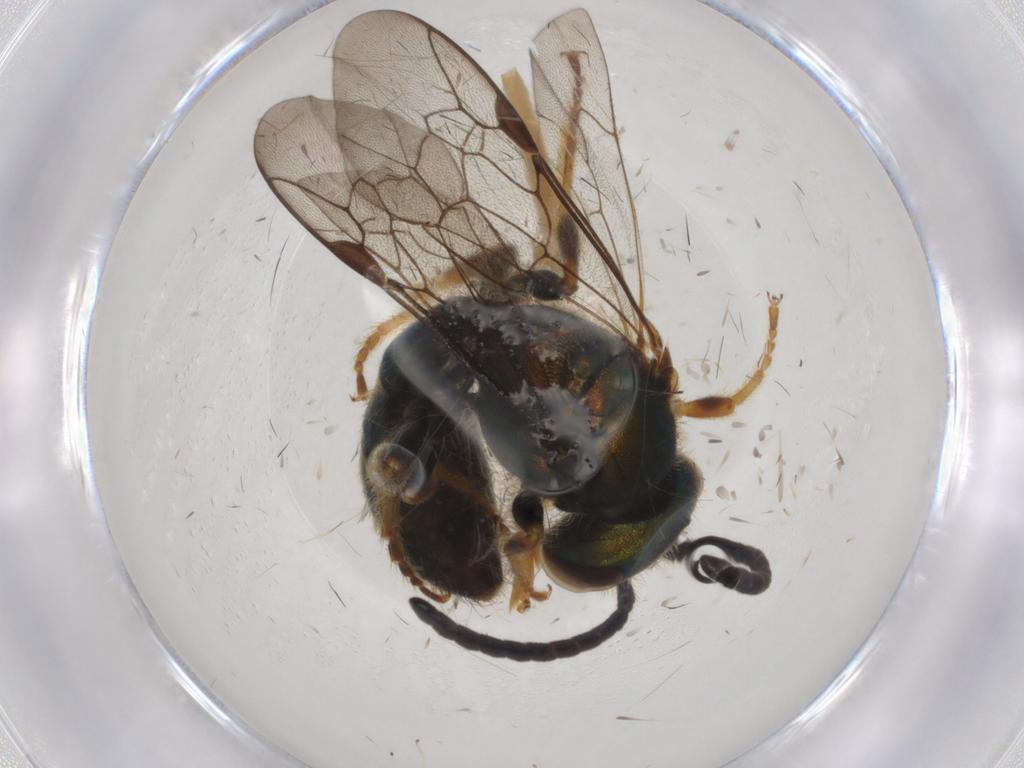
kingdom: Animalia
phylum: Arthropoda
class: Insecta
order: Hymenoptera
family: Halictidae
